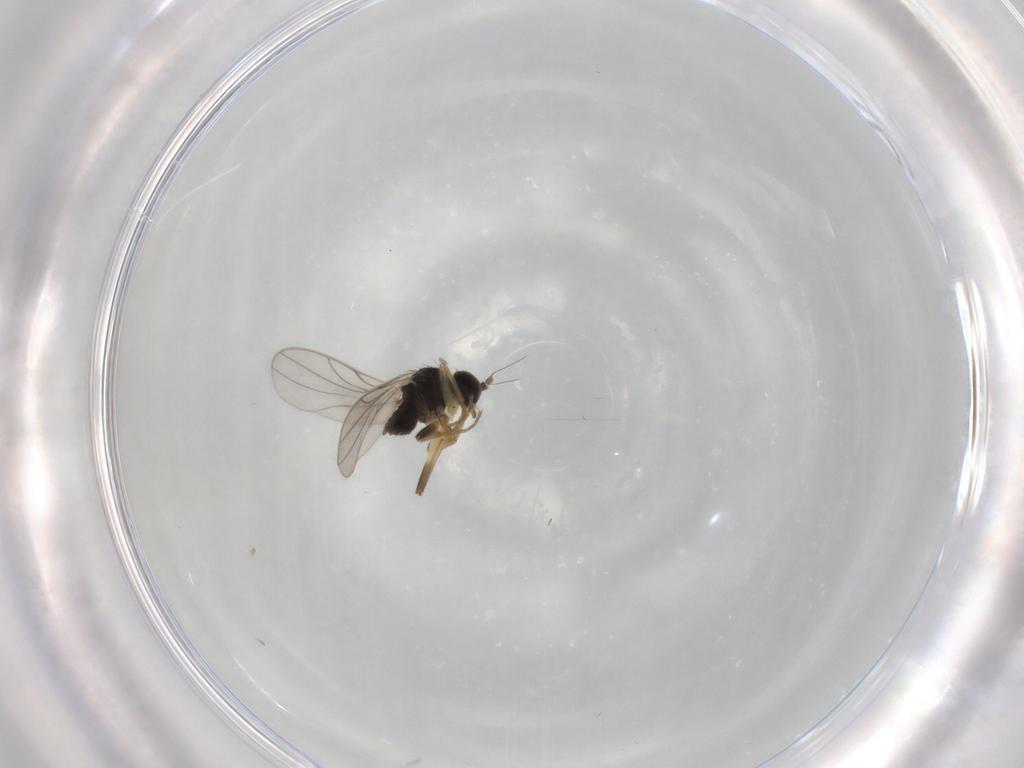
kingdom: Animalia
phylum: Arthropoda
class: Insecta
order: Diptera
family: Hybotidae
